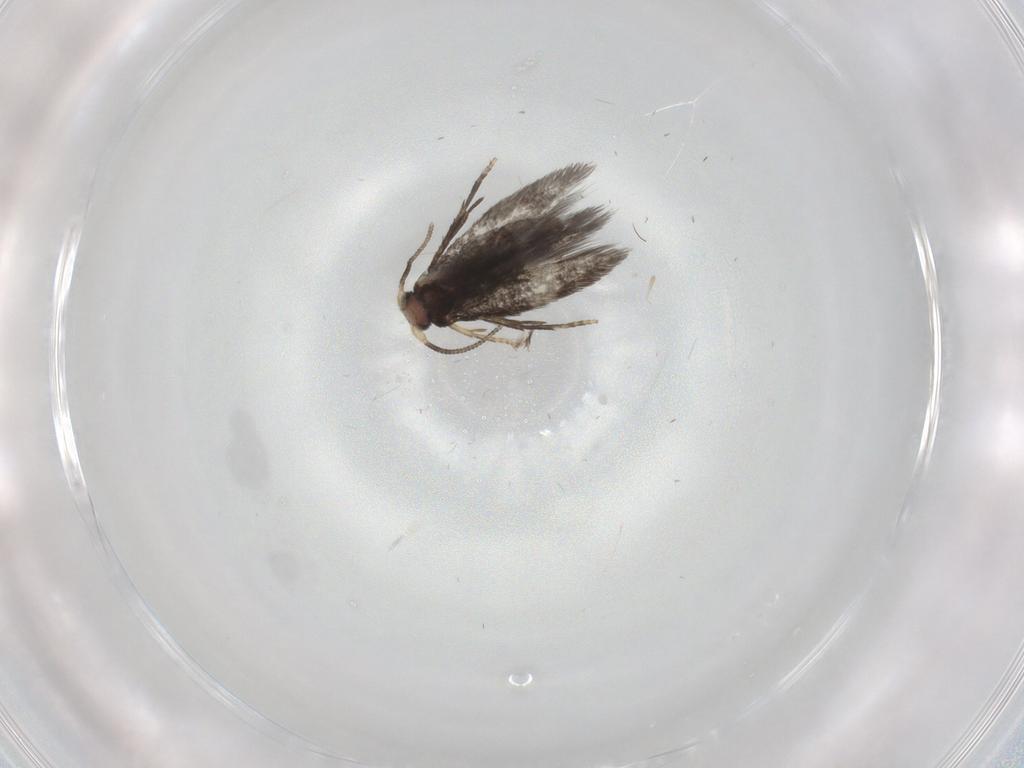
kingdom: Animalia
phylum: Arthropoda
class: Insecta
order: Lepidoptera
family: Nepticulidae
